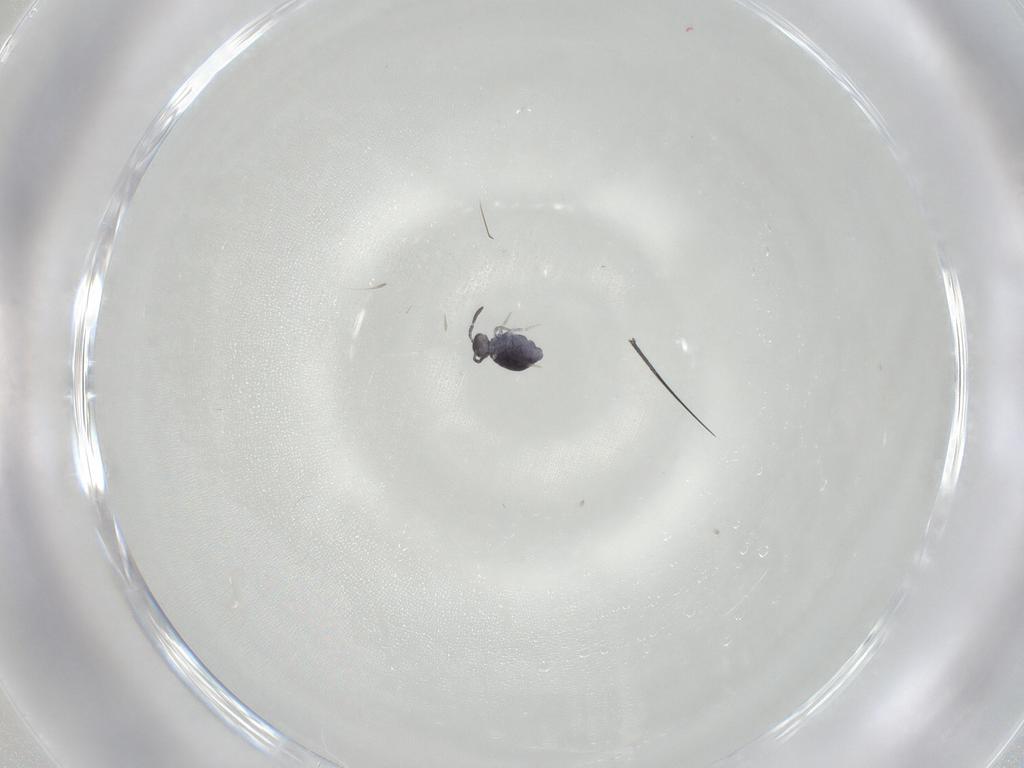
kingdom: Animalia
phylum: Arthropoda
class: Collembola
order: Symphypleona
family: Katiannidae
